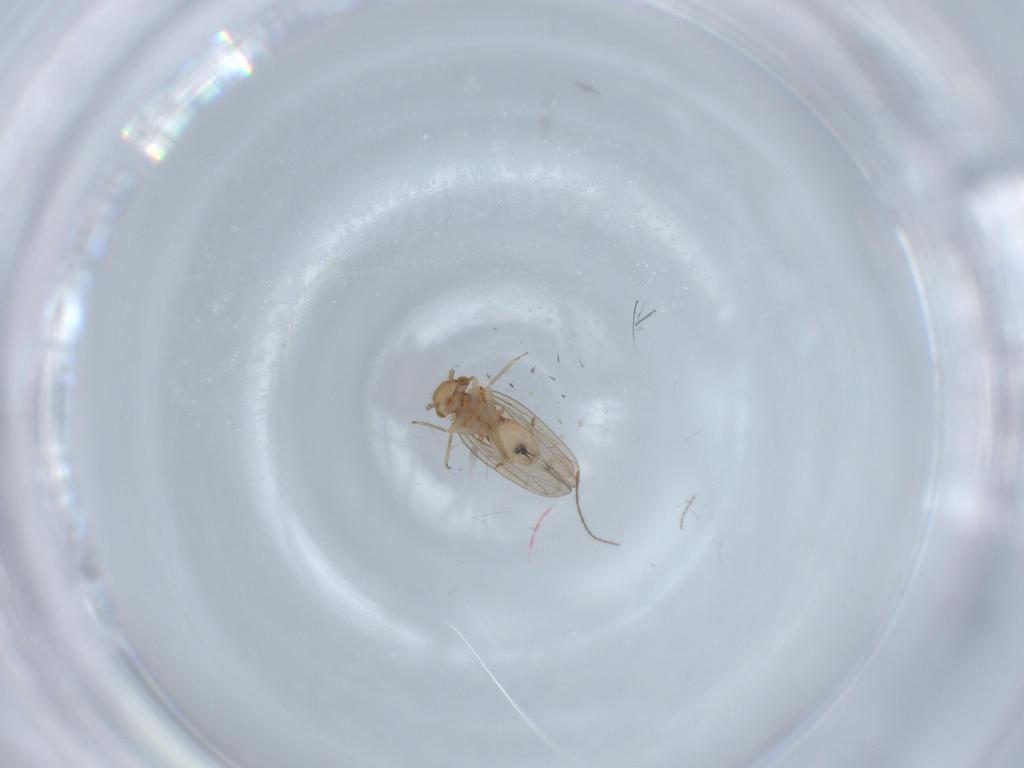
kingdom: Animalia
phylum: Arthropoda
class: Insecta
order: Psocodea
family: Ectopsocidae
